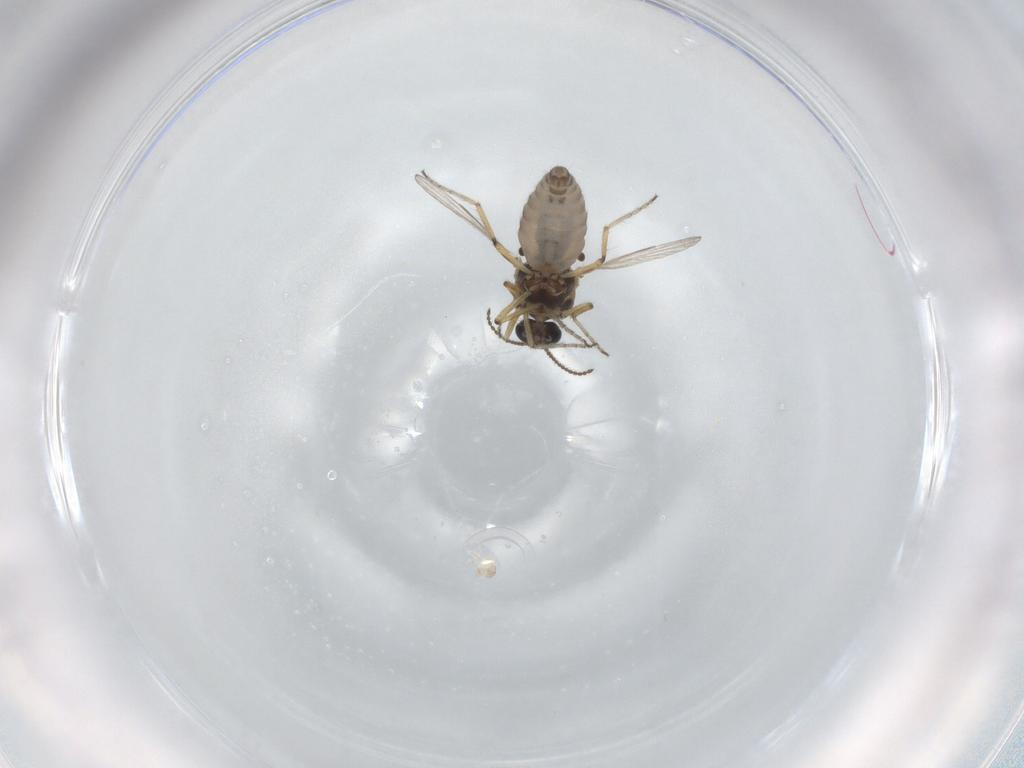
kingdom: Animalia
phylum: Arthropoda
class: Insecta
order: Diptera
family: Ceratopogonidae
